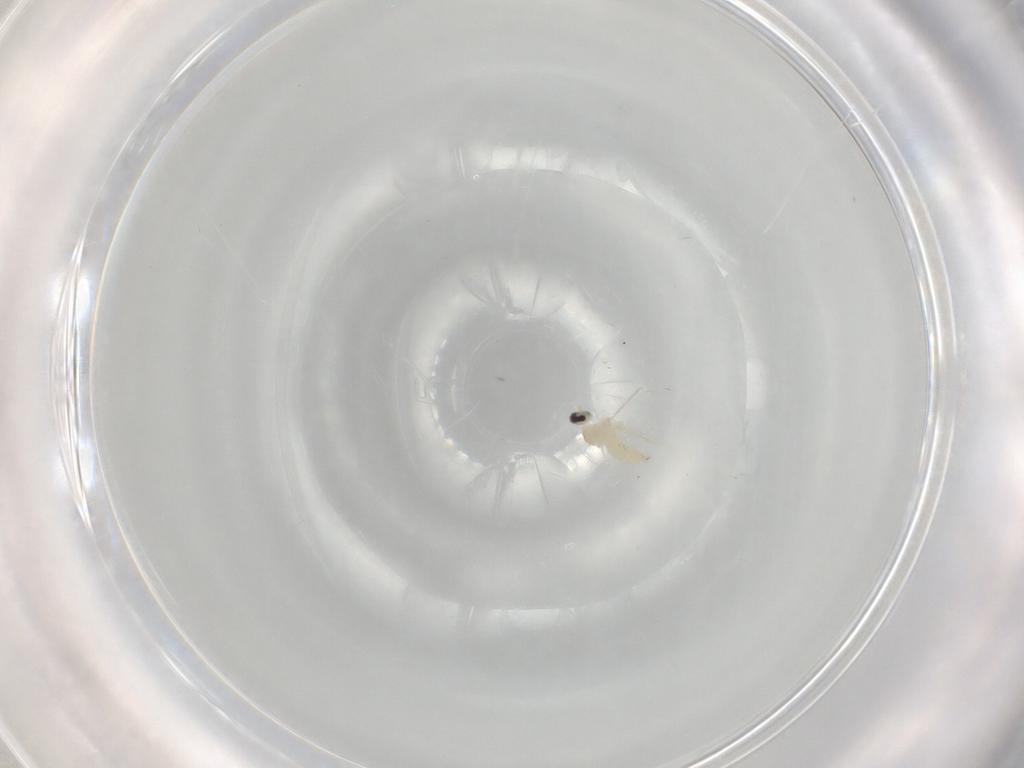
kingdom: Animalia
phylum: Arthropoda
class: Insecta
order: Diptera
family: Cecidomyiidae
